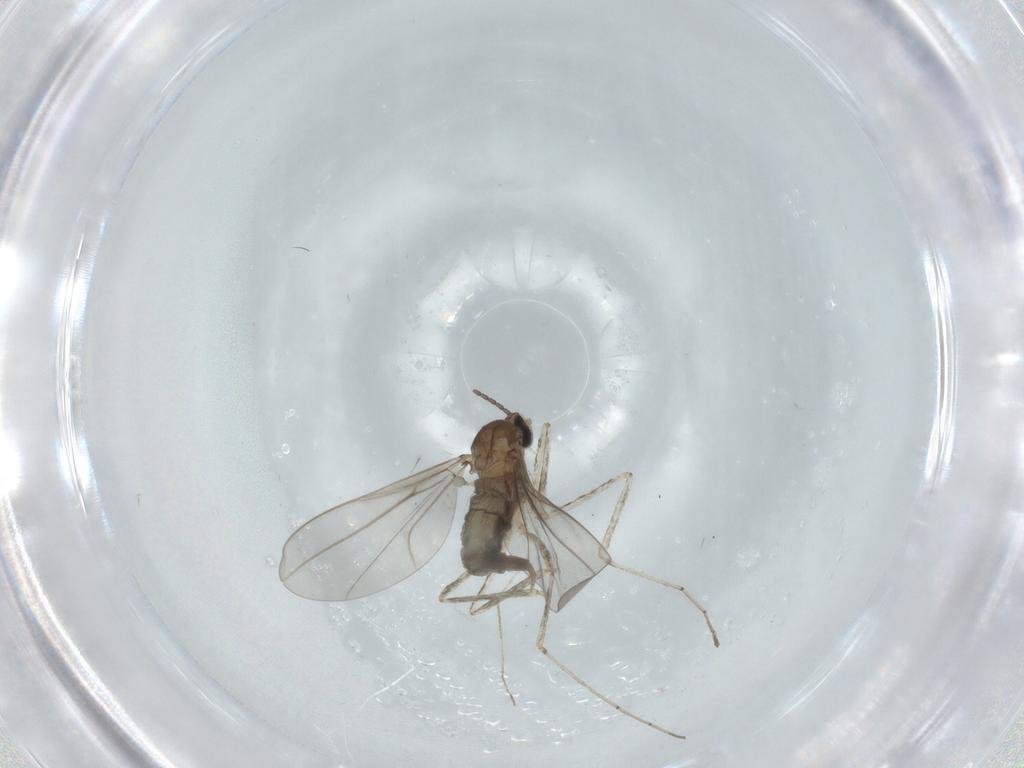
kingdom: Animalia
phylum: Arthropoda
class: Insecta
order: Diptera
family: Cecidomyiidae
